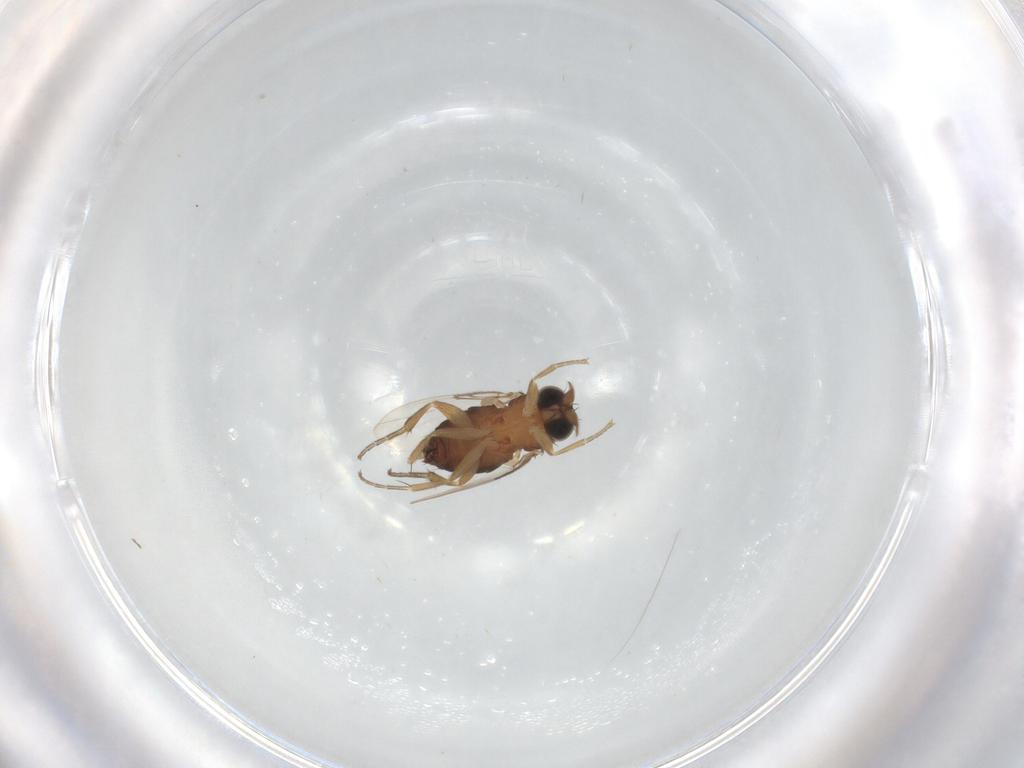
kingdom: Animalia
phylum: Arthropoda
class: Insecta
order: Diptera
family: Phoridae
